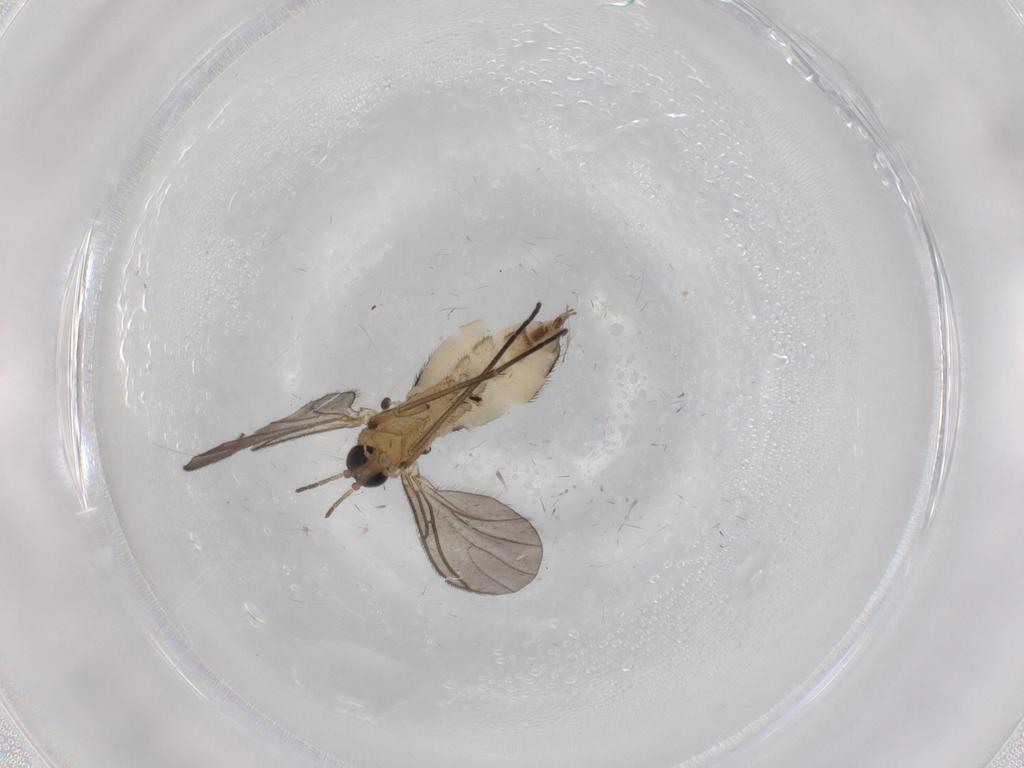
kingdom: Animalia
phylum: Arthropoda
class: Insecta
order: Diptera
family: Sciaridae
